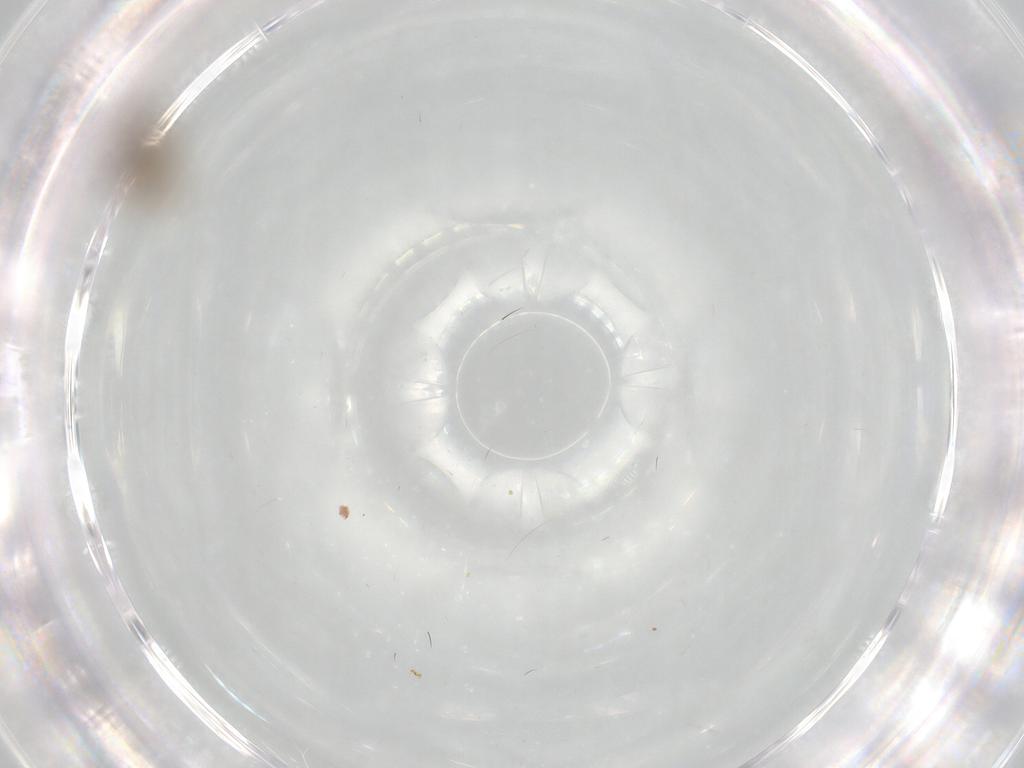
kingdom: Animalia
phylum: Arthropoda
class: Insecta
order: Diptera
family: Psychodidae
